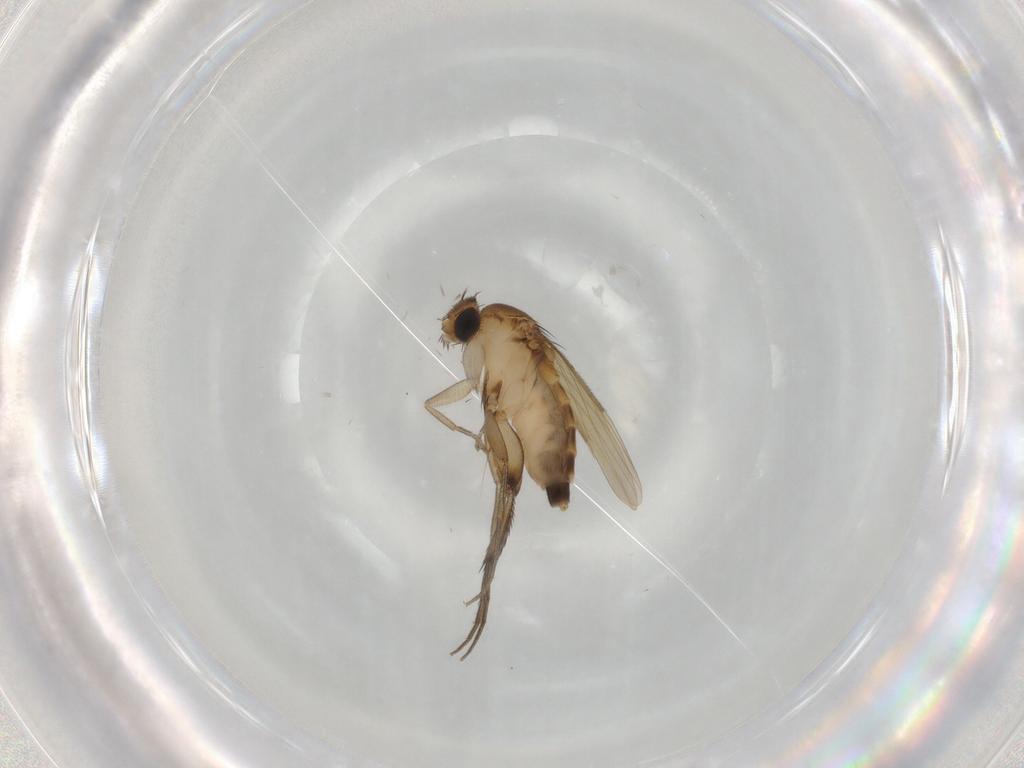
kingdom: Animalia
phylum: Arthropoda
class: Insecta
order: Diptera
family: Phoridae
